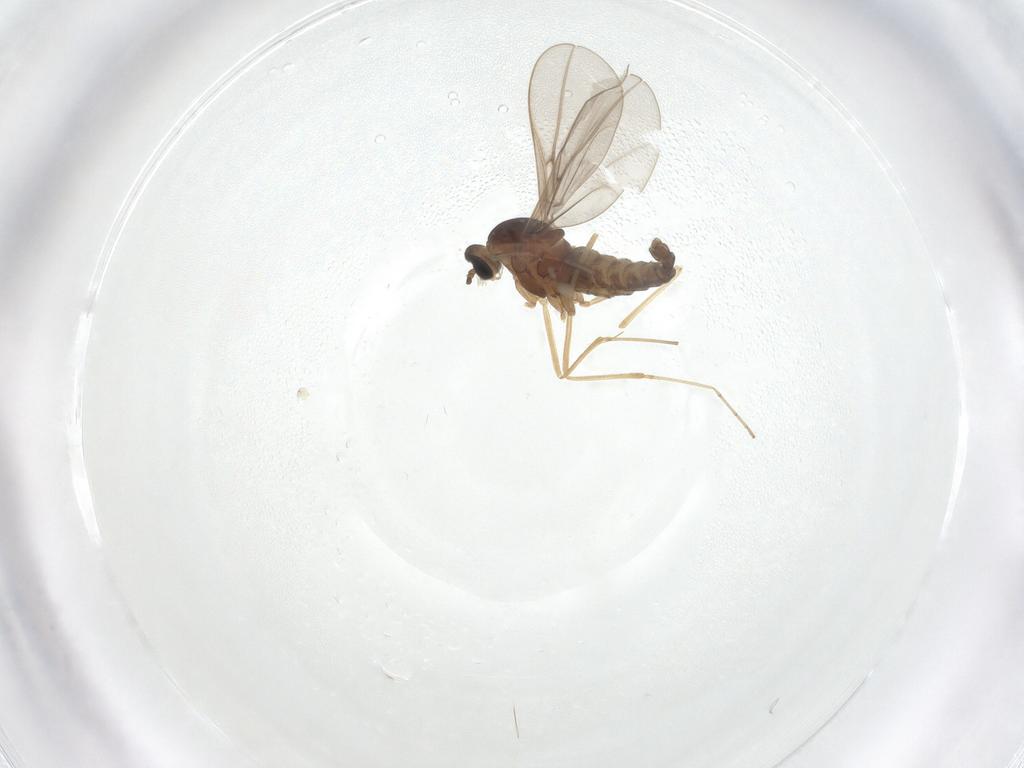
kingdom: Animalia
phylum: Arthropoda
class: Insecta
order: Diptera
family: Cecidomyiidae
